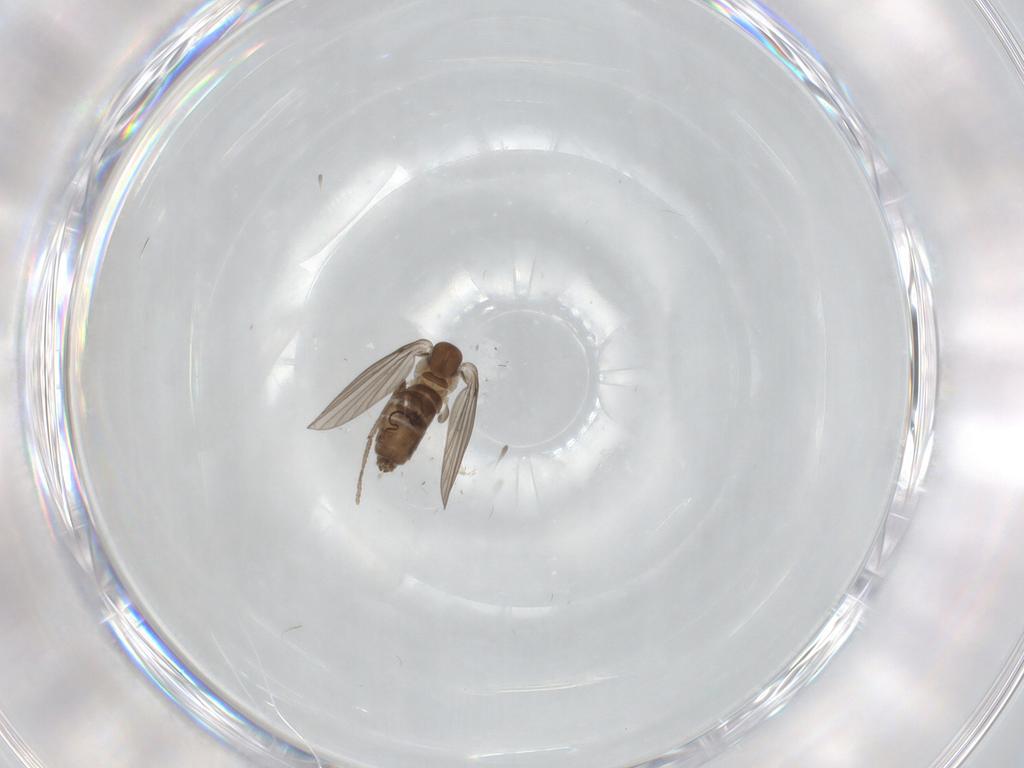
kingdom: Animalia
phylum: Arthropoda
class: Insecta
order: Diptera
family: Psychodidae
